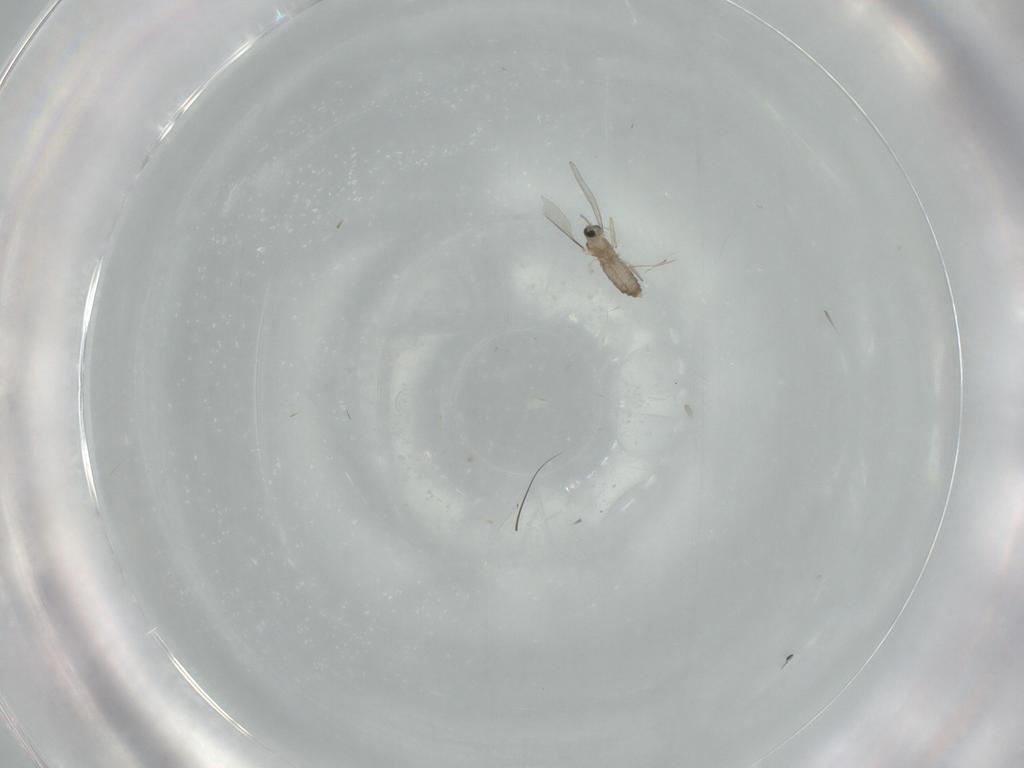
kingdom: Animalia
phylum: Arthropoda
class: Insecta
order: Diptera
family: Cecidomyiidae
